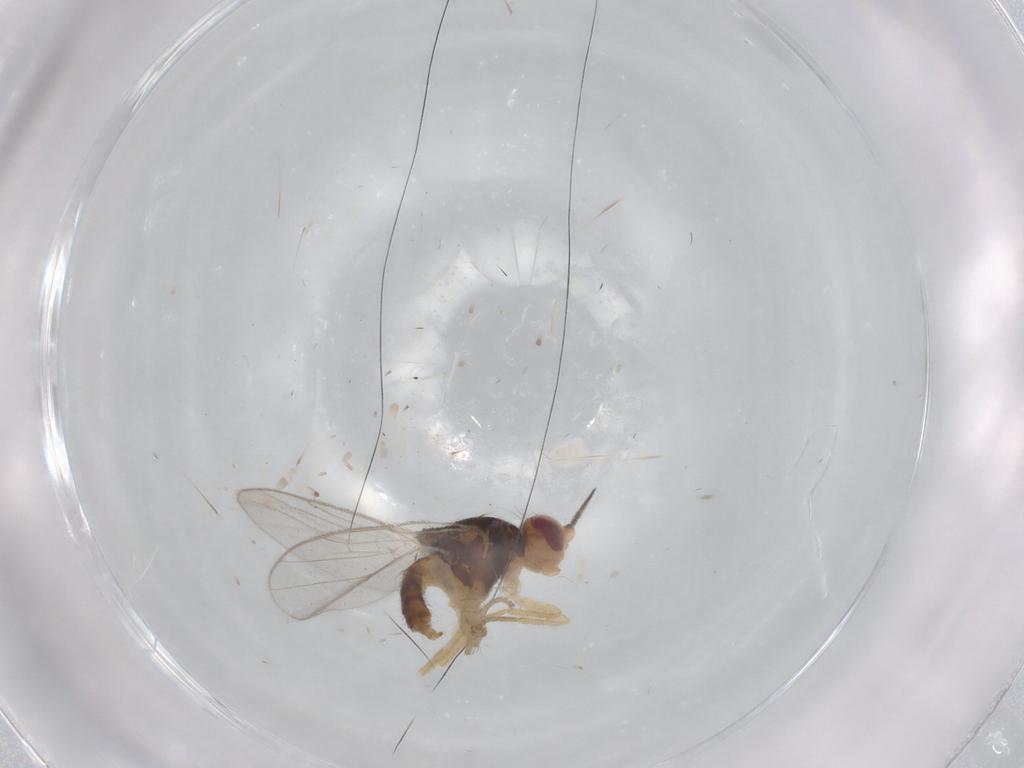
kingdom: Animalia
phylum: Arthropoda
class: Insecta
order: Diptera
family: Chloropidae
